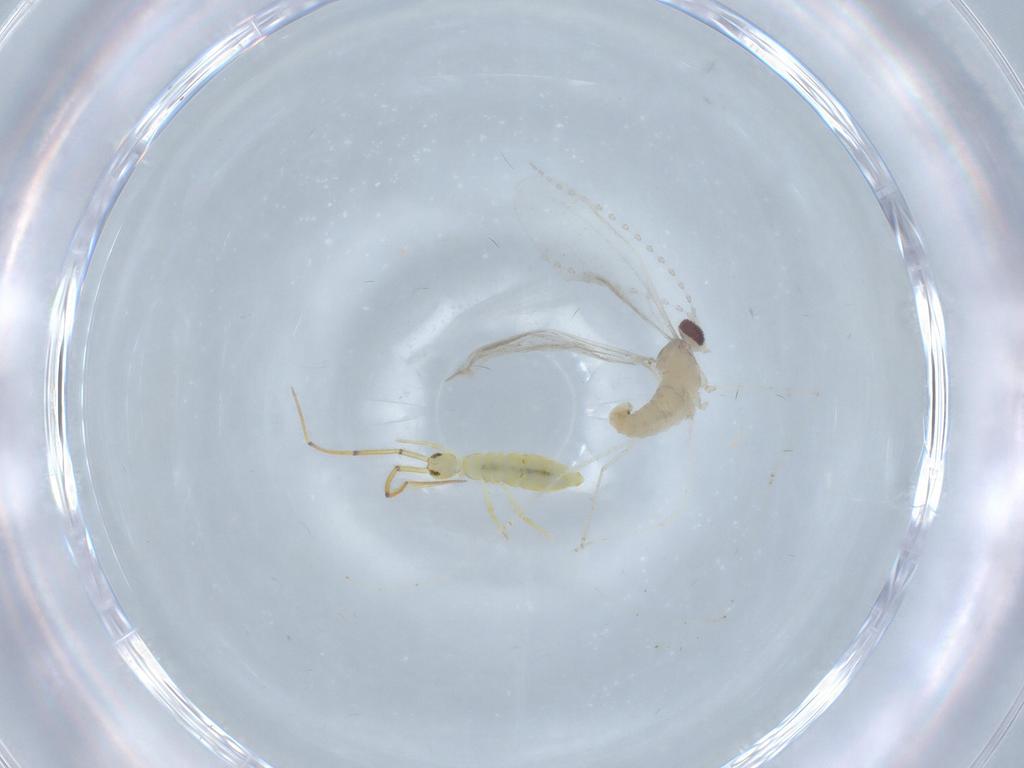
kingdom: Animalia
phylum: Arthropoda
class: Insecta
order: Diptera
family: Cecidomyiidae
